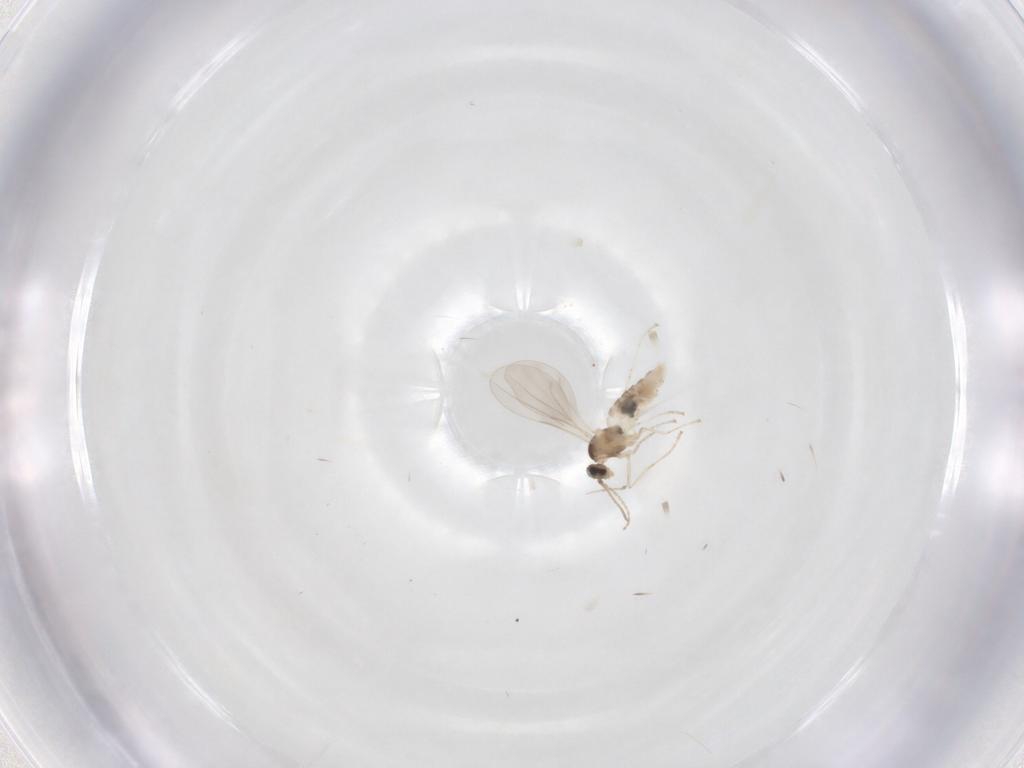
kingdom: Animalia
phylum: Arthropoda
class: Insecta
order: Diptera
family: Cecidomyiidae
